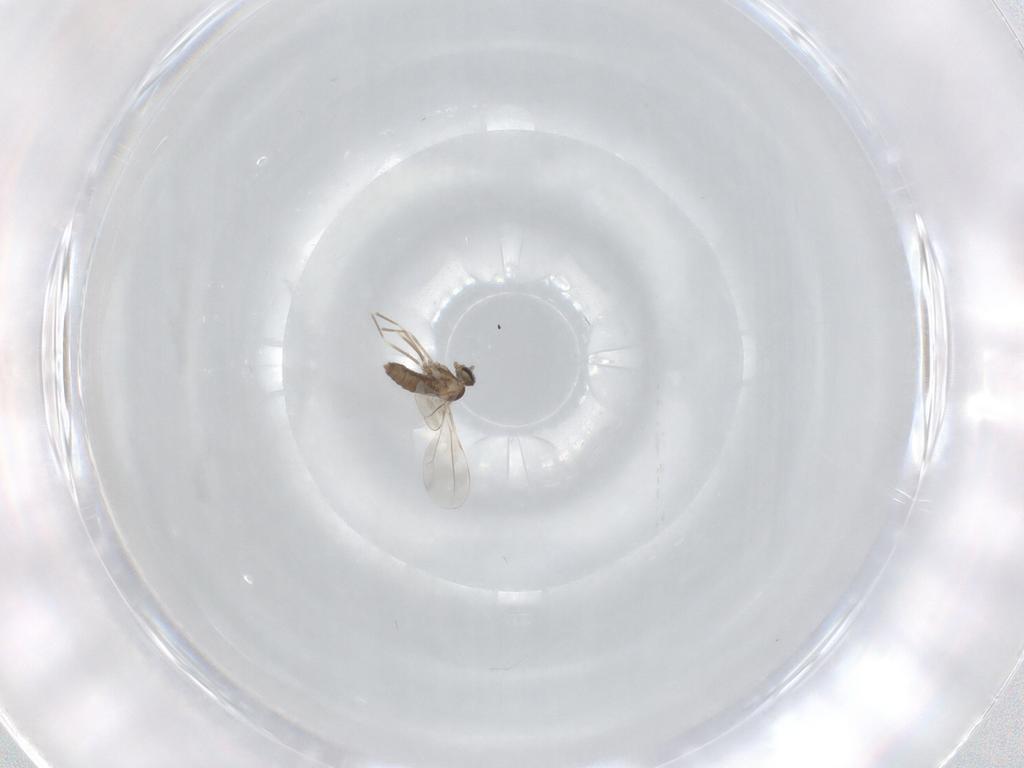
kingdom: Animalia
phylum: Arthropoda
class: Insecta
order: Diptera
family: Cecidomyiidae
